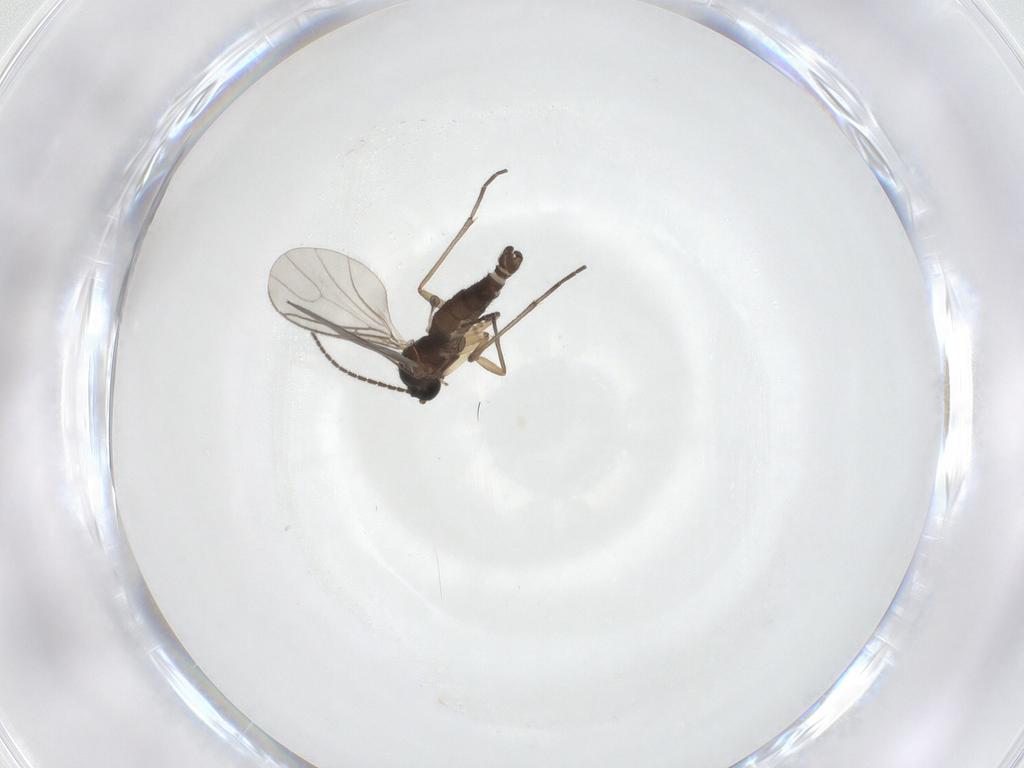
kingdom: Animalia
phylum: Arthropoda
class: Insecta
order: Diptera
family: Sciaridae
